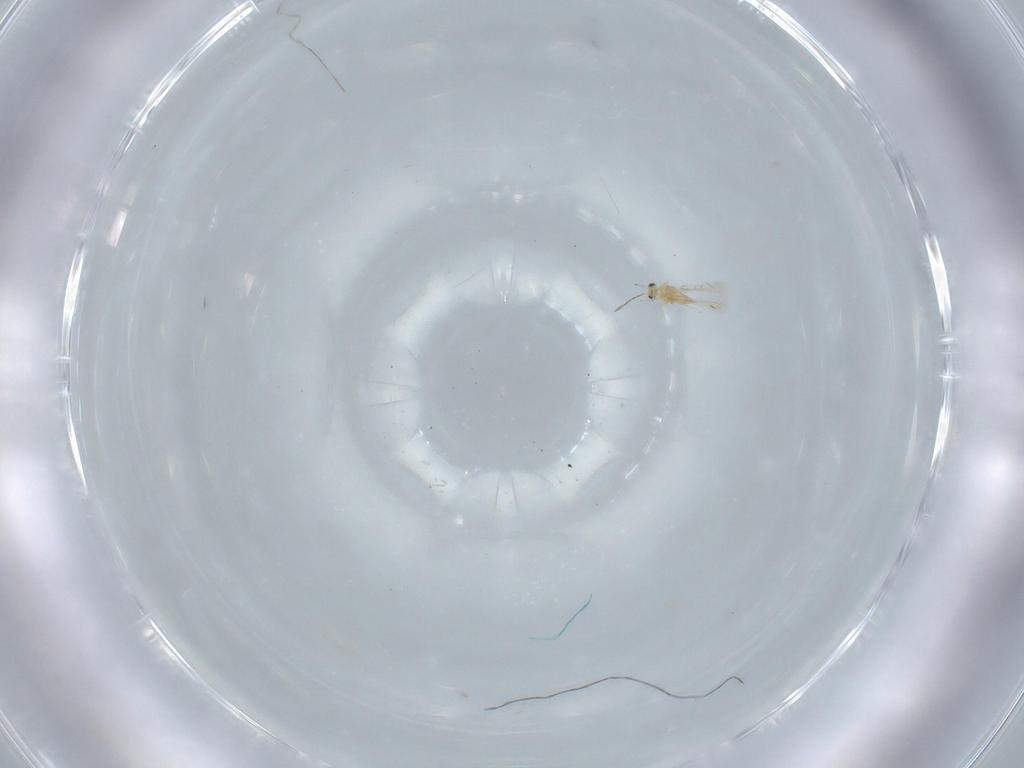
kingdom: Animalia
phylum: Arthropoda
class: Insecta
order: Hymenoptera
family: Mymaridae
